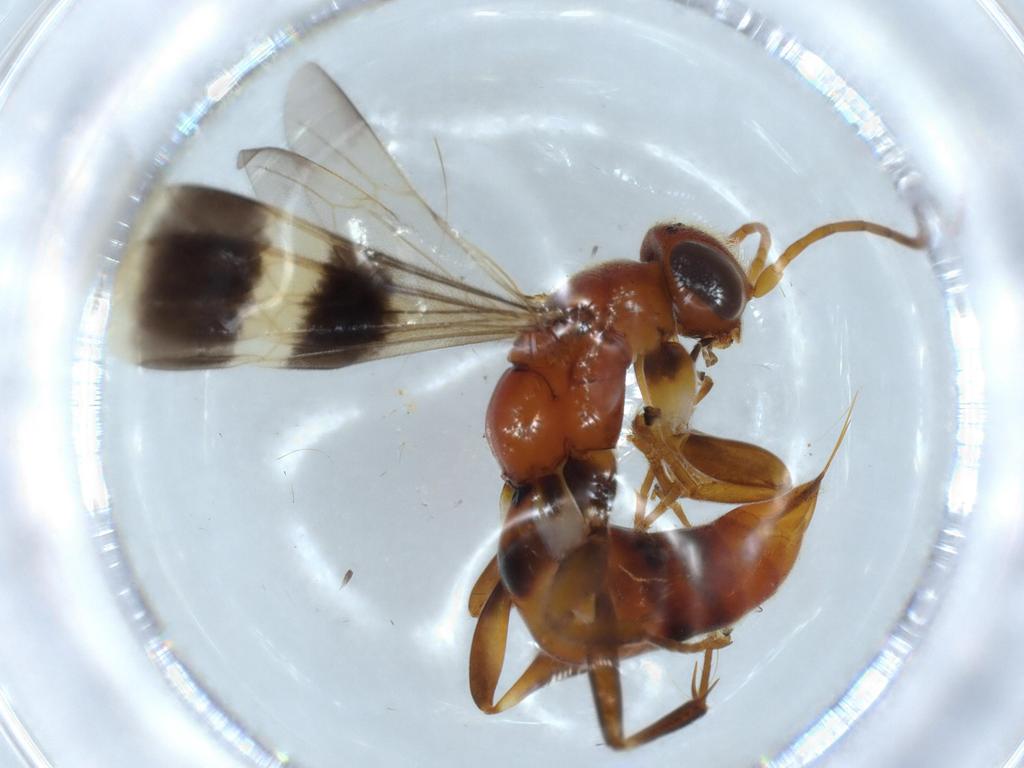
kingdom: Animalia
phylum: Arthropoda
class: Insecta
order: Hymenoptera
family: Pompilidae
